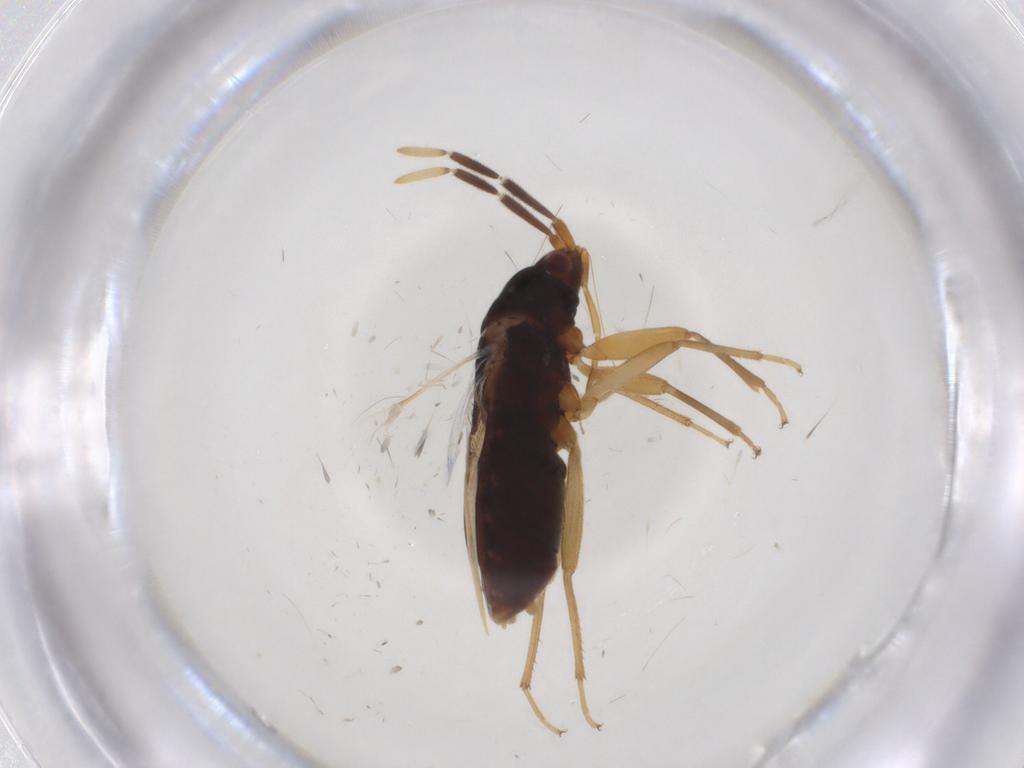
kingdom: Animalia
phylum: Arthropoda
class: Insecta
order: Hemiptera
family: Rhyparochromidae
